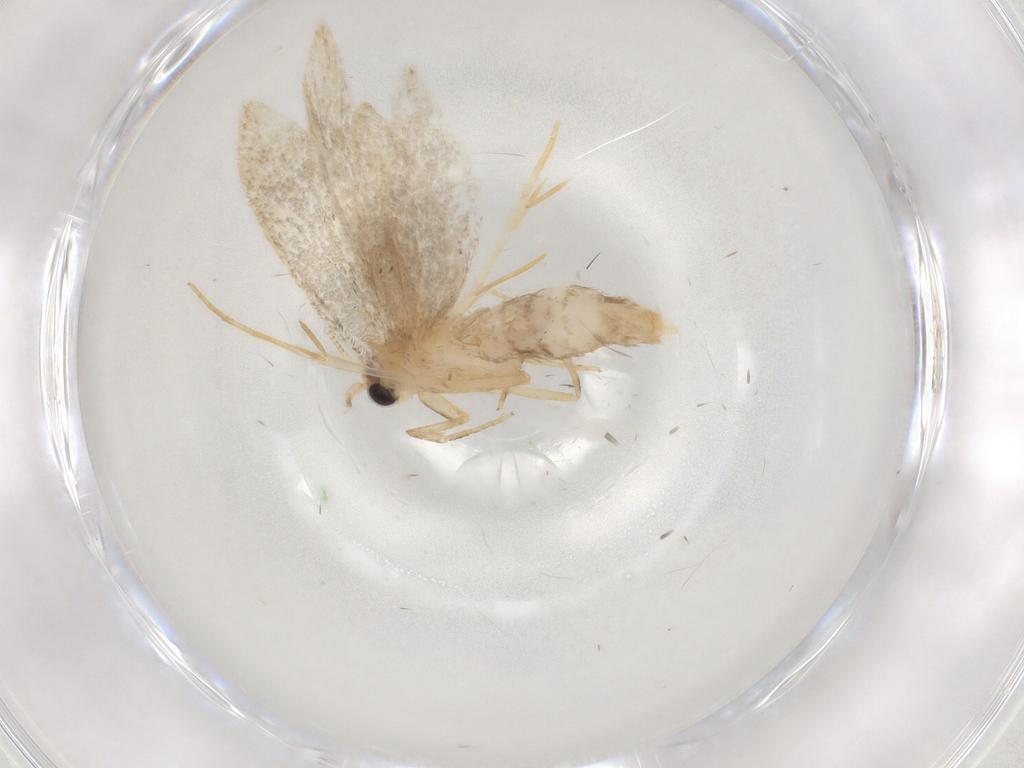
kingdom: Animalia
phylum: Arthropoda
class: Insecta
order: Lepidoptera
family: Nepticulidae
